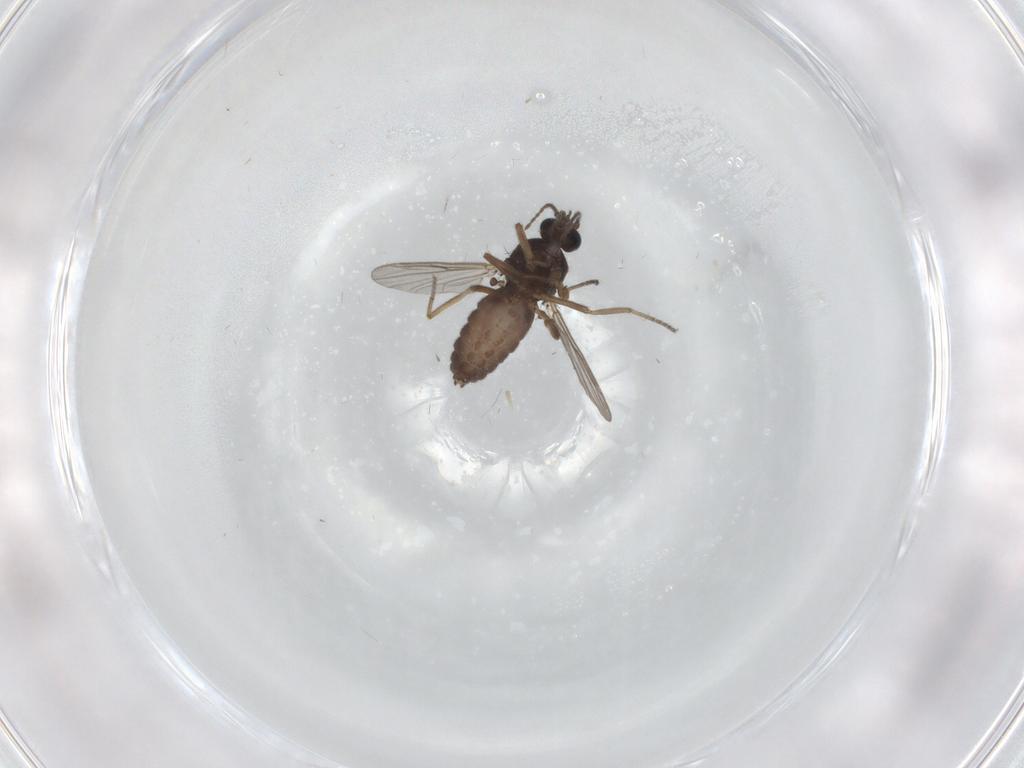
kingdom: Animalia
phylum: Arthropoda
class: Insecta
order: Diptera
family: Ceratopogonidae
